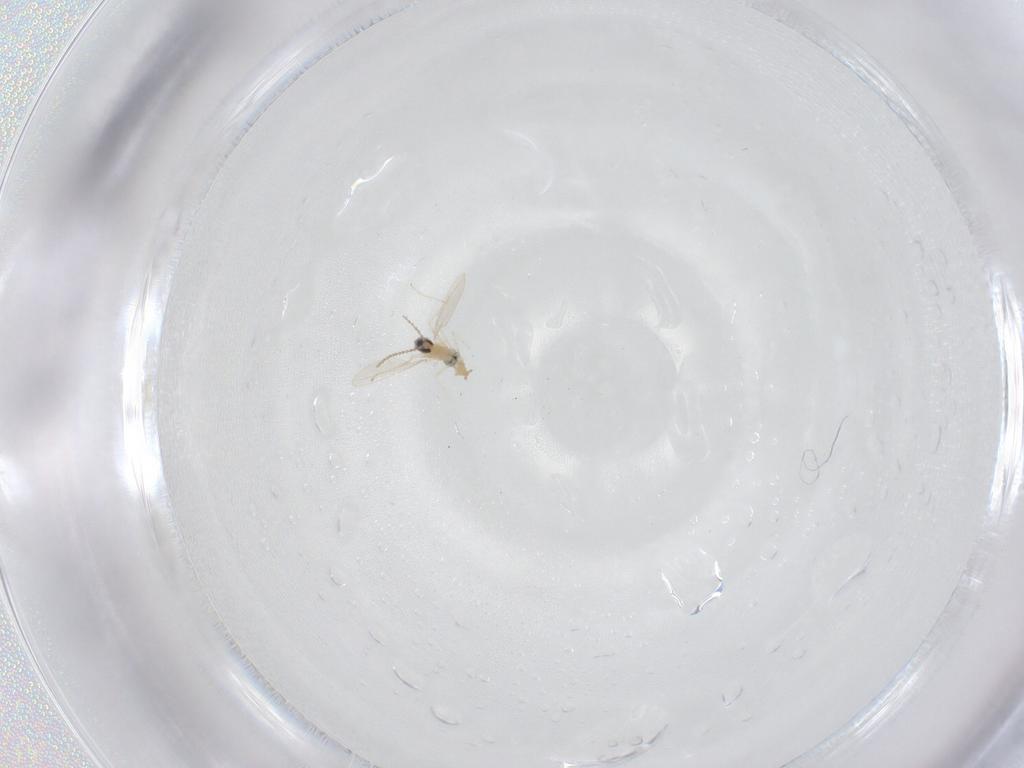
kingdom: Animalia
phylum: Arthropoda
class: Insecta
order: Diptera
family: Cecidomyiidae
